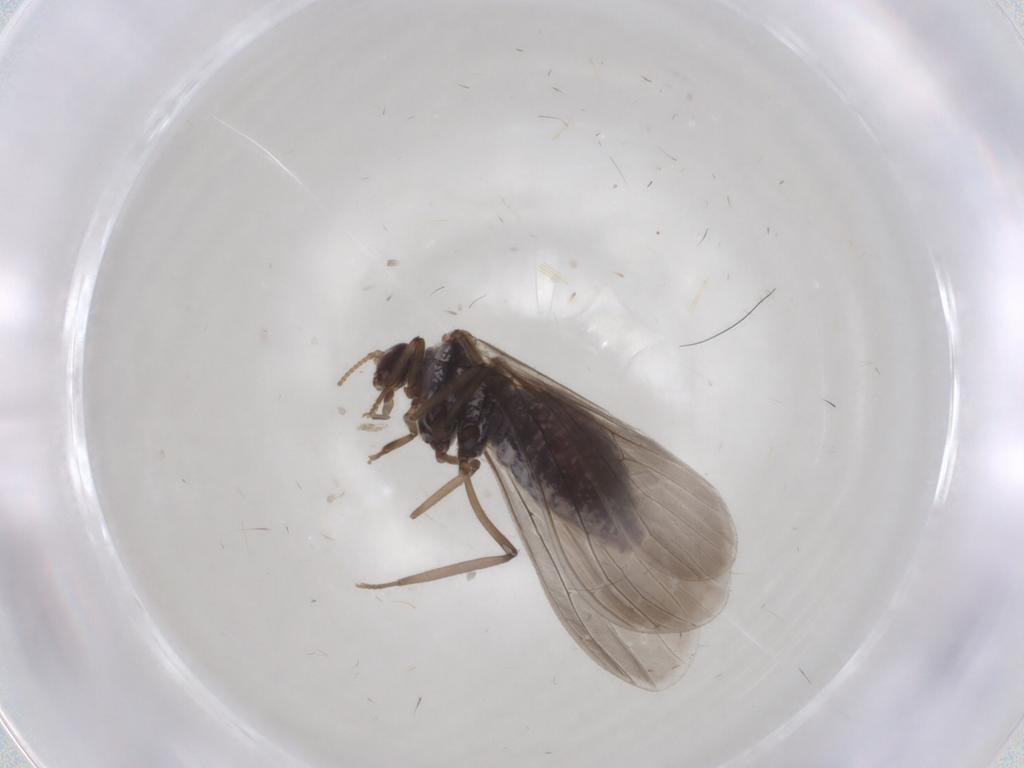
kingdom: Animalia
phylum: Arthropoda
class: Insecta
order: Neuroptera
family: Coniopterygidae
